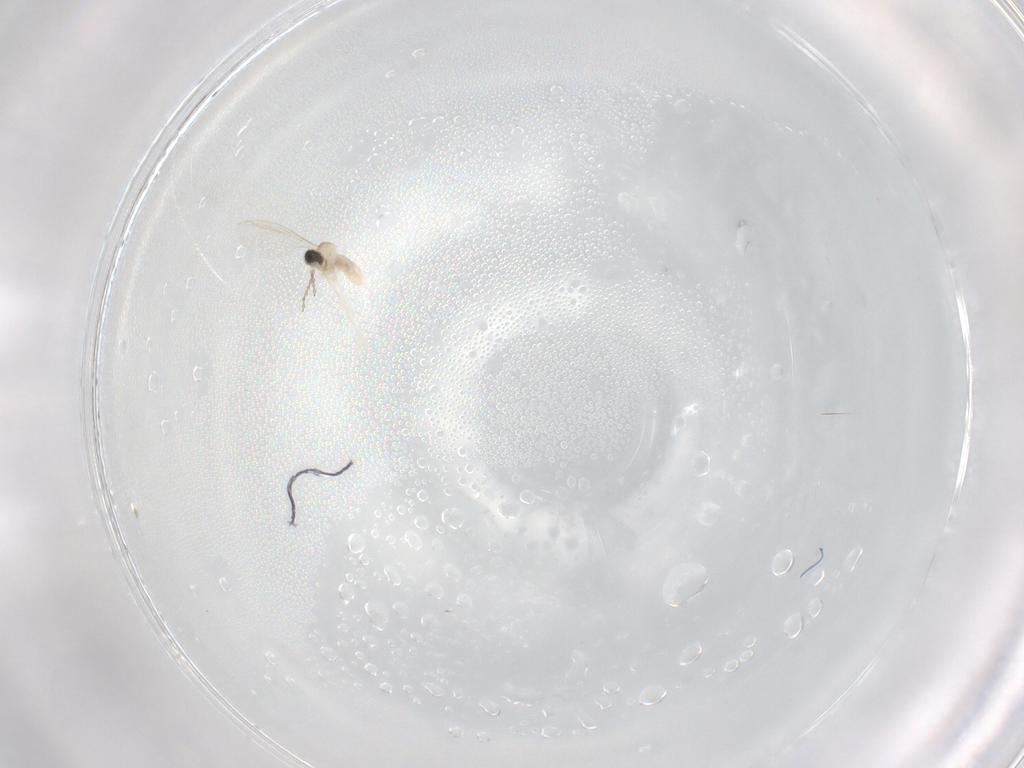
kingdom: Animalia
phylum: Arthropoda
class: Insecta
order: Diptera
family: Cecidomyiidae
